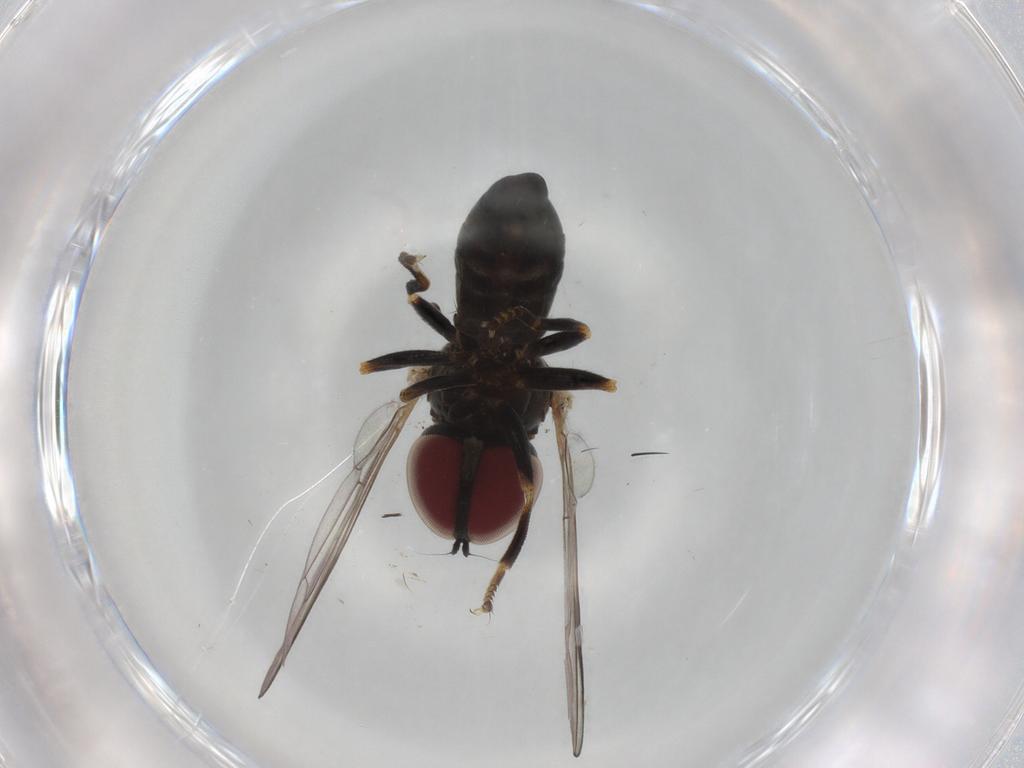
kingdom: Animalia
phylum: Arthropoda
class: Insecta
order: Diptera
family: Pipunculidae
